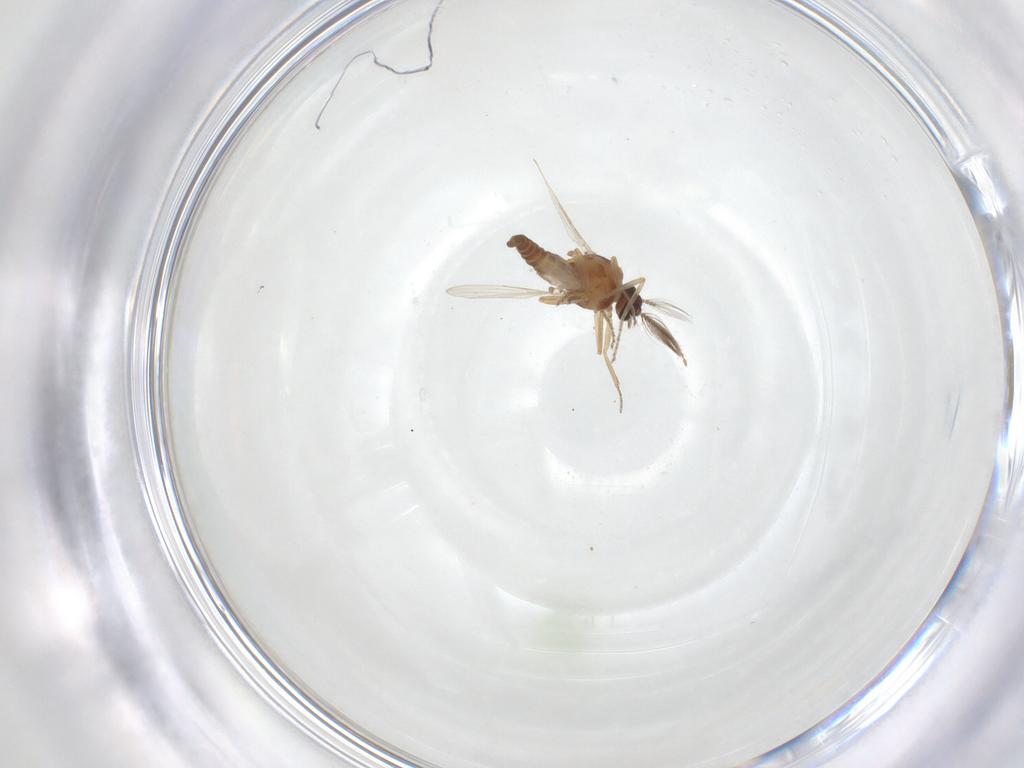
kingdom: Animalia
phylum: Arthropoda
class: Insecta
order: Diptera
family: Ceratopogonidae
